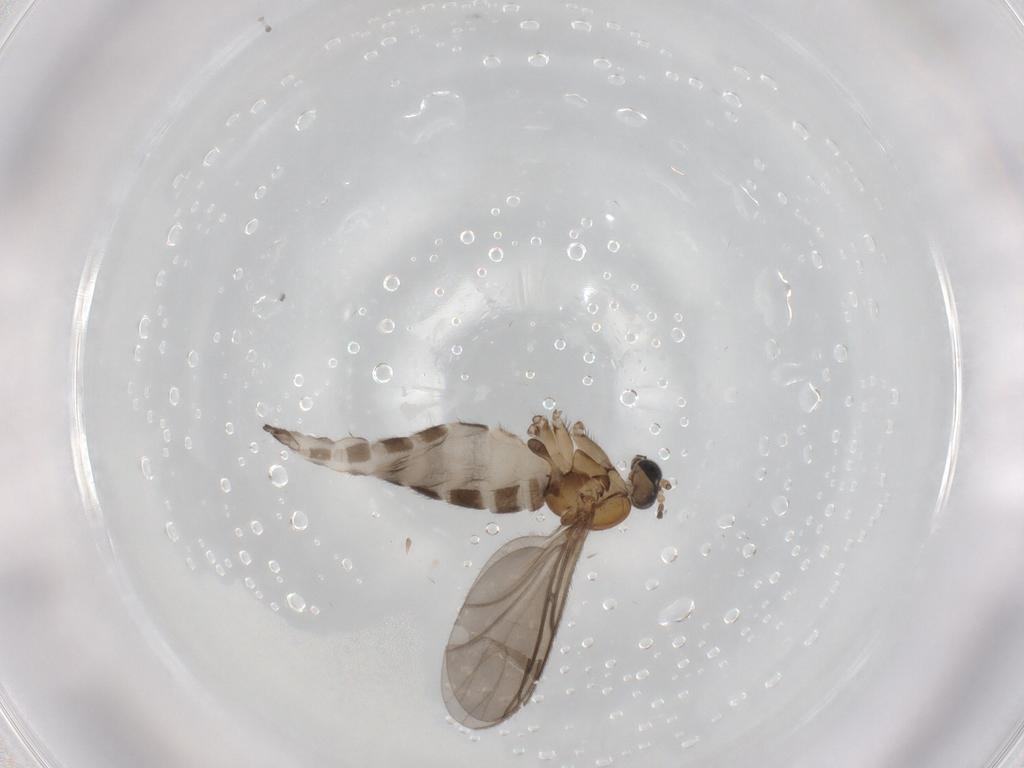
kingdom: Animalia
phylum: Arthropoda
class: Insecta
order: Diptera
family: Sciaridae
